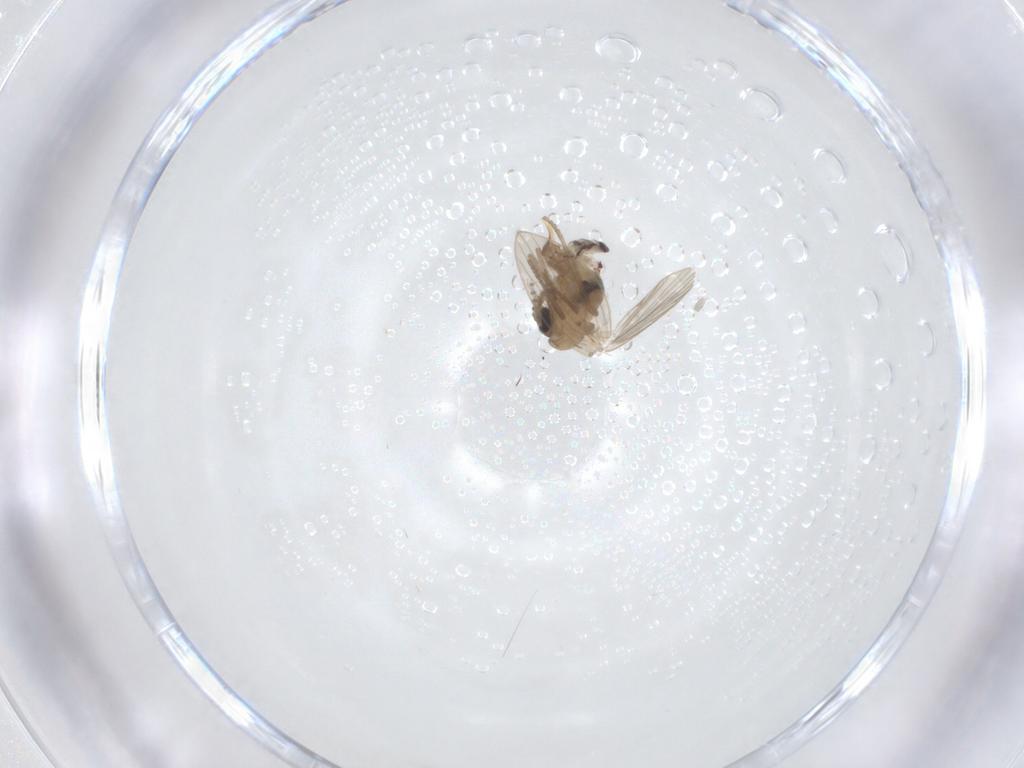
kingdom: Animalia
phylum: Arthropoda
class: Insecta
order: Diptera
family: Psychodidae
